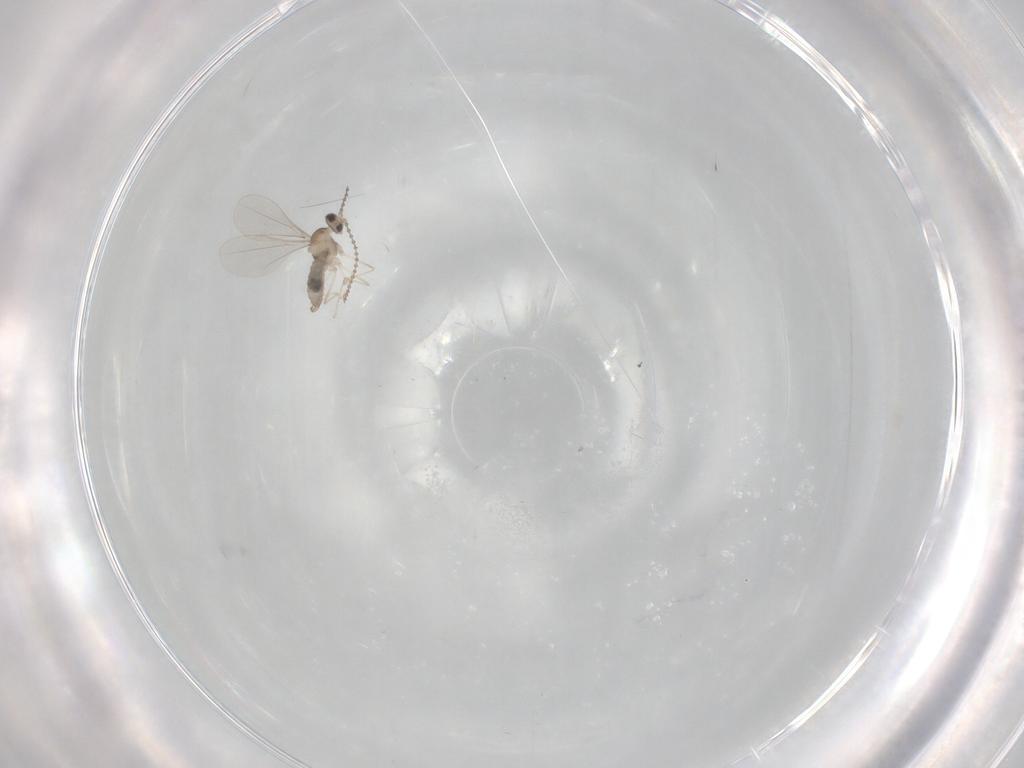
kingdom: Animalia
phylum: Arthropoda
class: Insecta
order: Diptera
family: Cecidomyiidae
